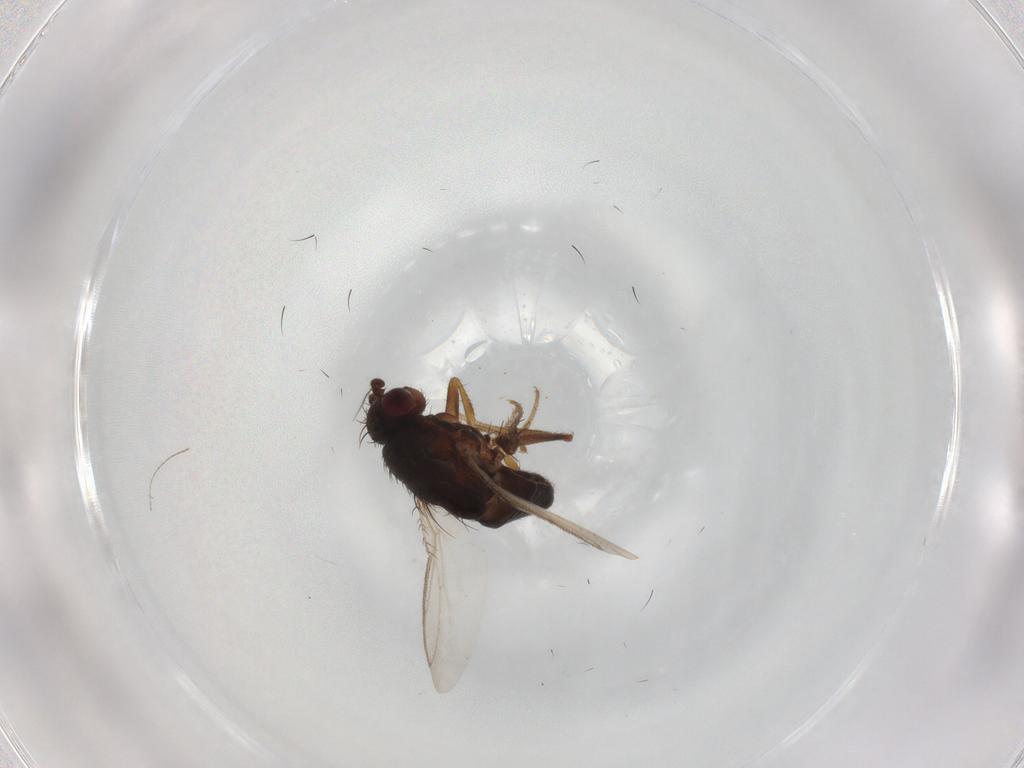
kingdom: Animalia
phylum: Arthropoda
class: Insecta
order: Diptera
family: Sphaeroceridae
